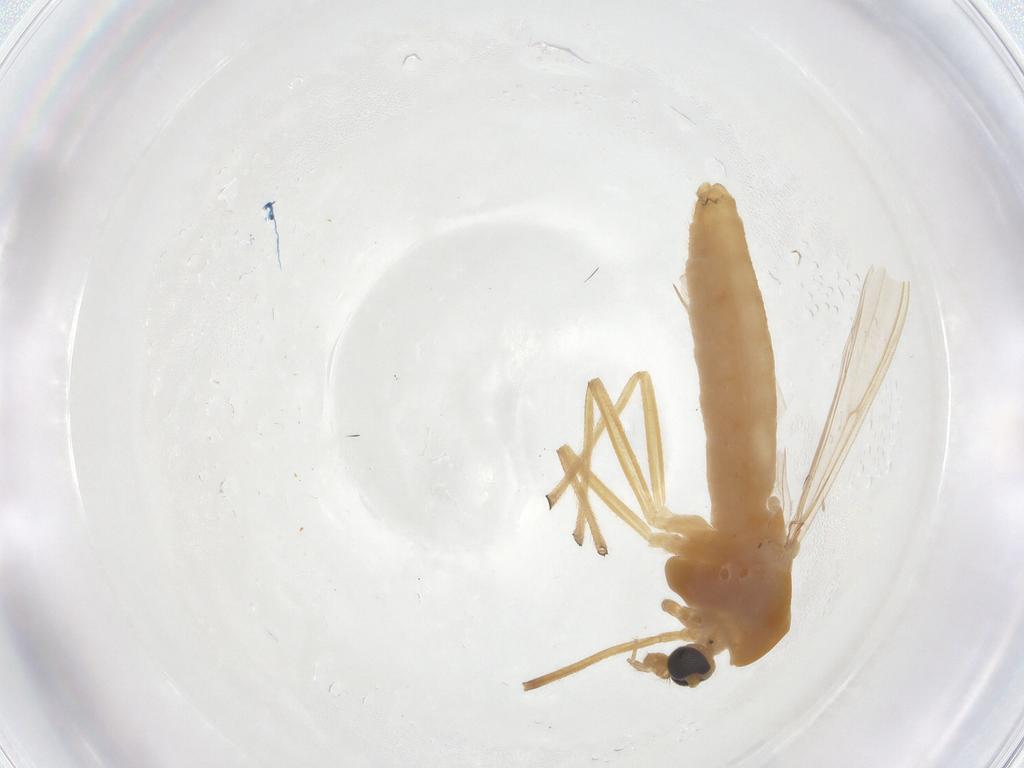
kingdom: Animalia
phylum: Arthropoda
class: Insecta
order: Diptera
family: Chironomidae
